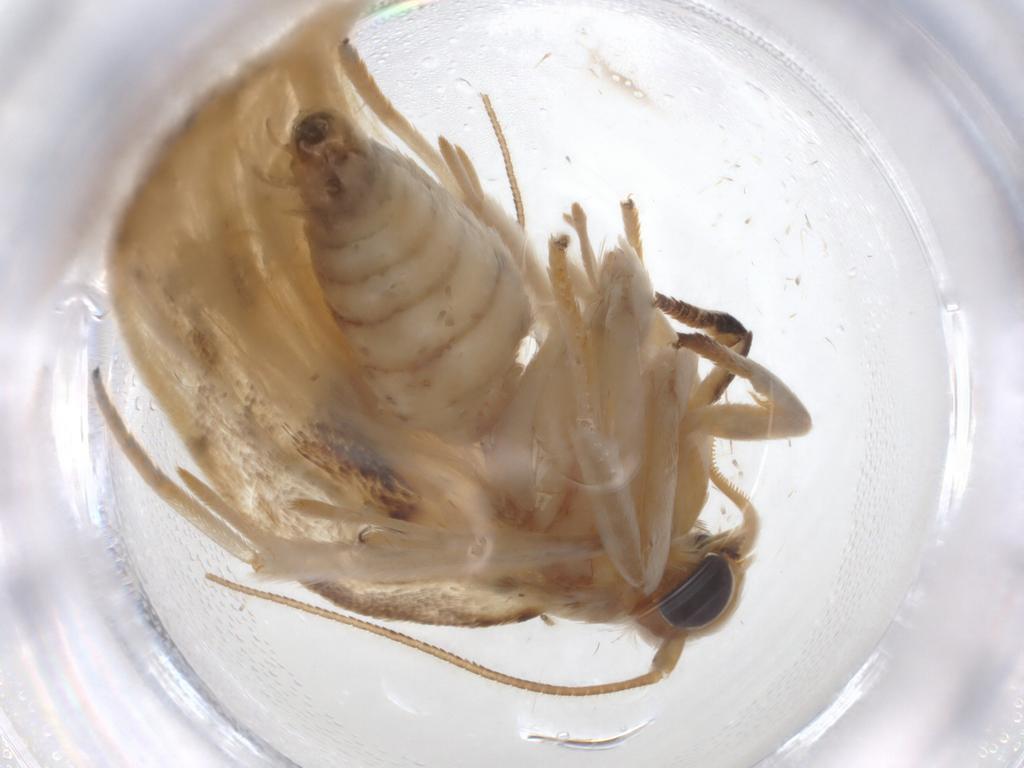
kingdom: Animalia
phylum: Arthropoda
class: Insecta
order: Lepidoptera
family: Depressariidae
